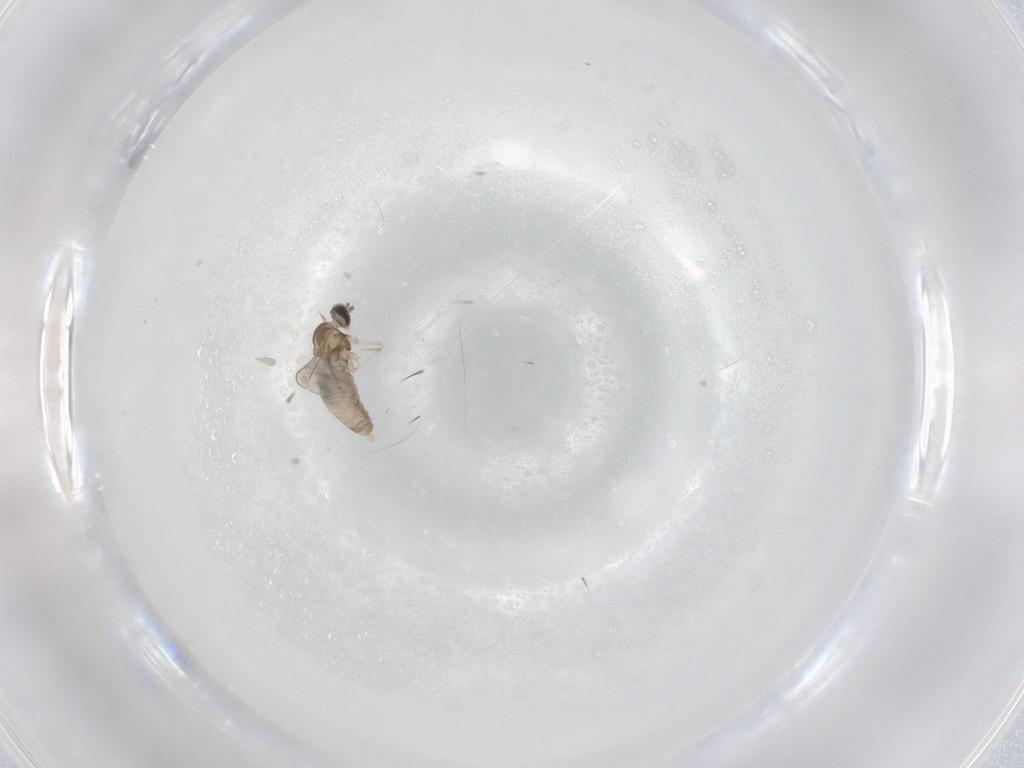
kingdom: Animalia
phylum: Arthropoda
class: Insecta
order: Diptera
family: Cecidomyiidae
